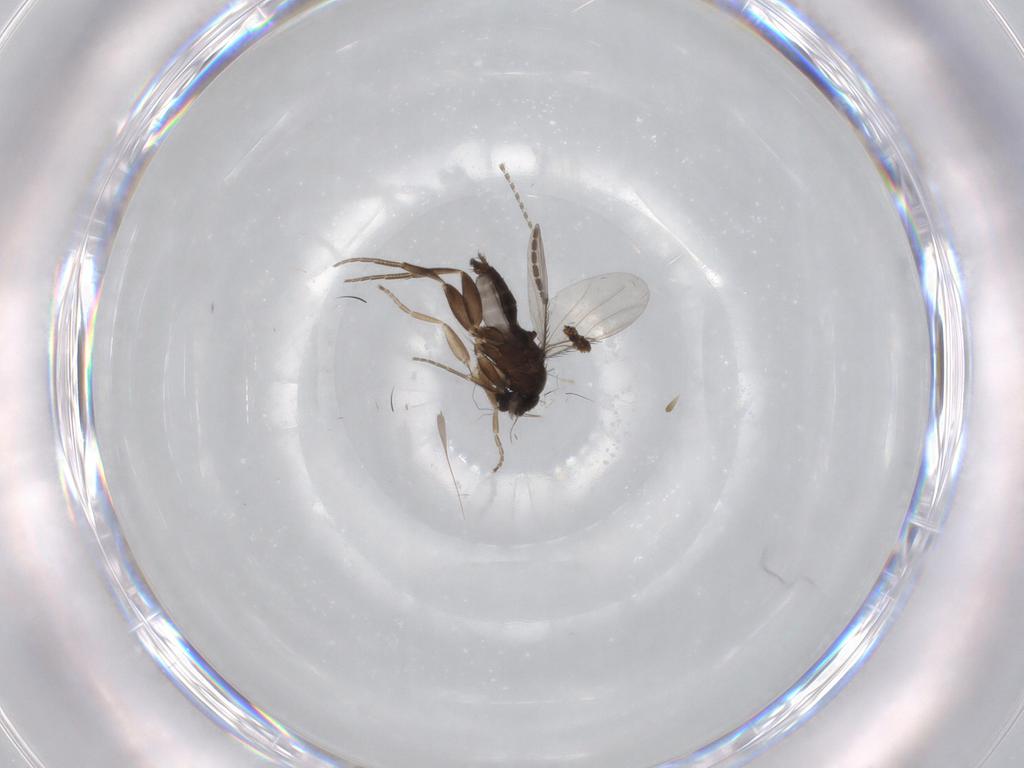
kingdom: Animalia
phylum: Arthropoda
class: Insecta
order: Diptera
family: Phoridae
